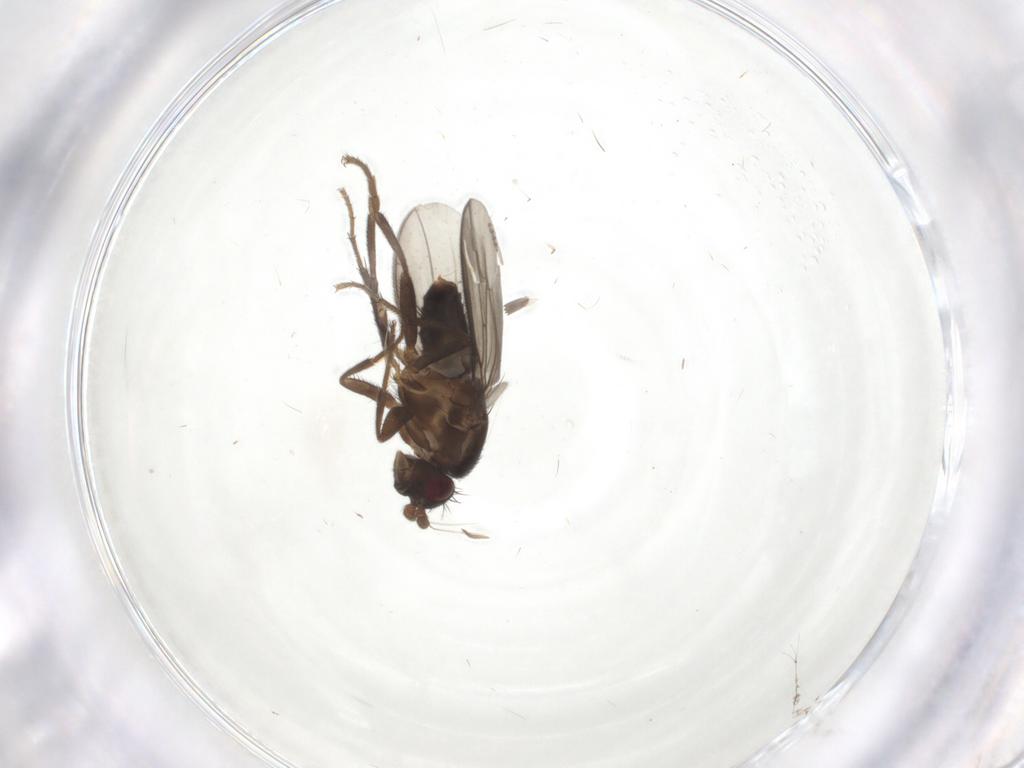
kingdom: Animalia
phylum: Arthropoda
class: Insecta
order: Diptera
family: Sphaeroceridae
